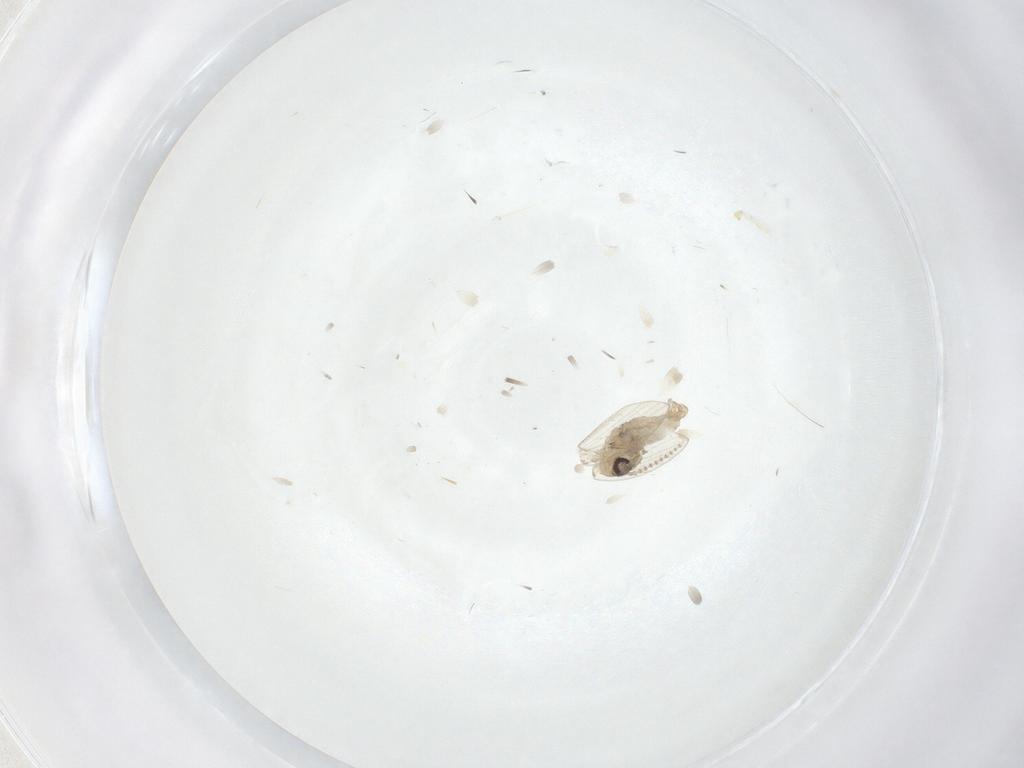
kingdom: Animalia
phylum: Arthropoda
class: Insecta
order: Diptera
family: Psychodidae
